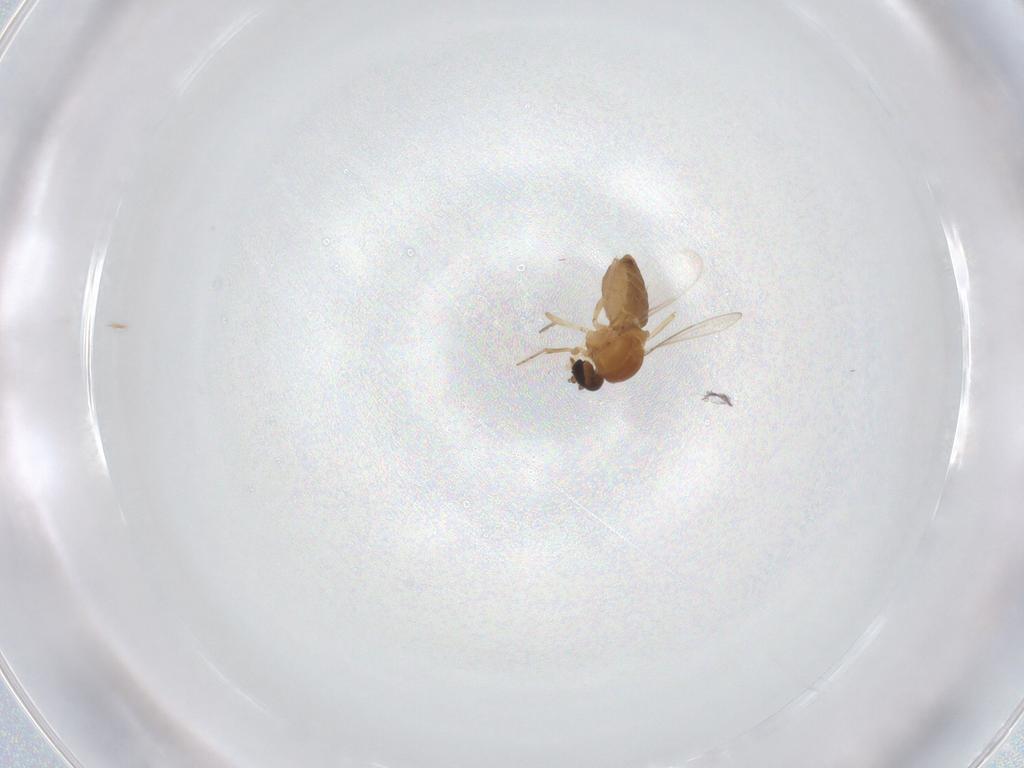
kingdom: Animalia
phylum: Arthropoda
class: Insecta
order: Diptera
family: Ceratopogonidae
